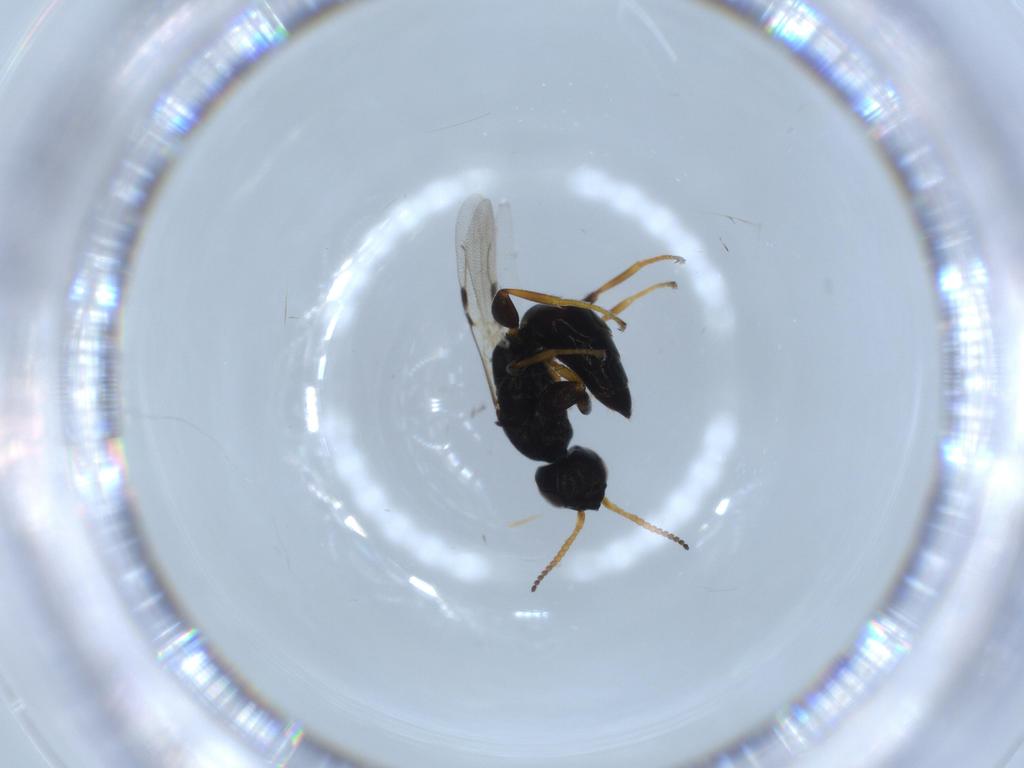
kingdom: Animalia
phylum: Arthropoda
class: Insecta
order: Hymenoptera
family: Bethylidae
